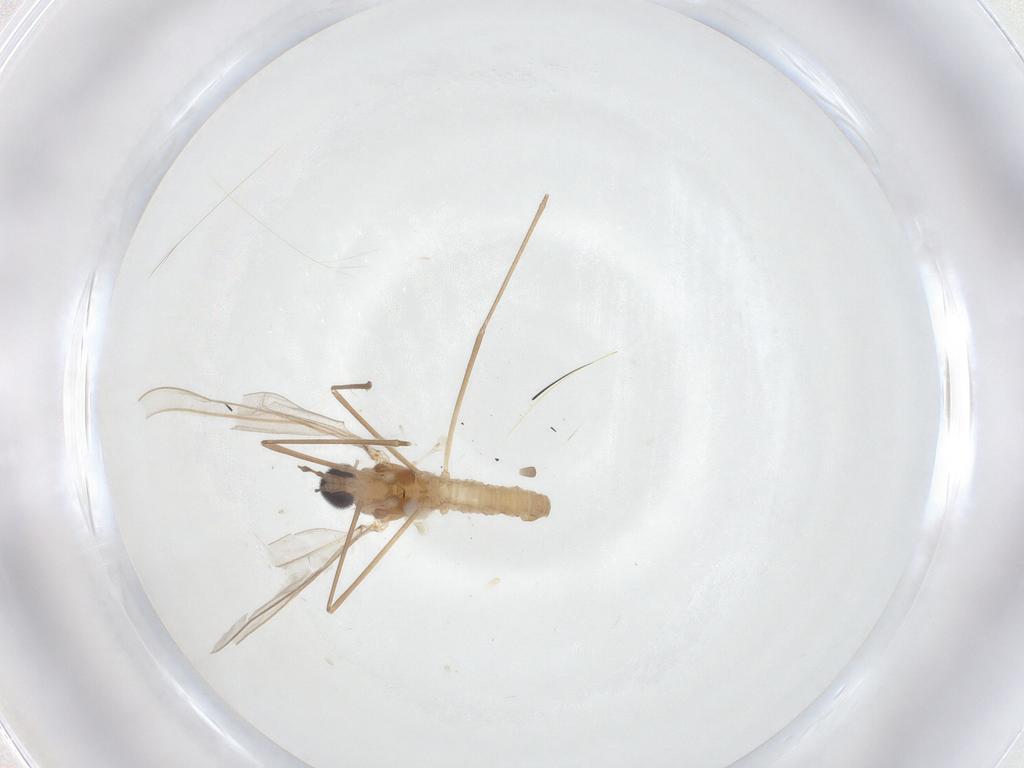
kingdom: Animalia
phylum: Arthropoda
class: Insecta
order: Diptera
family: Cecidomyiidae
